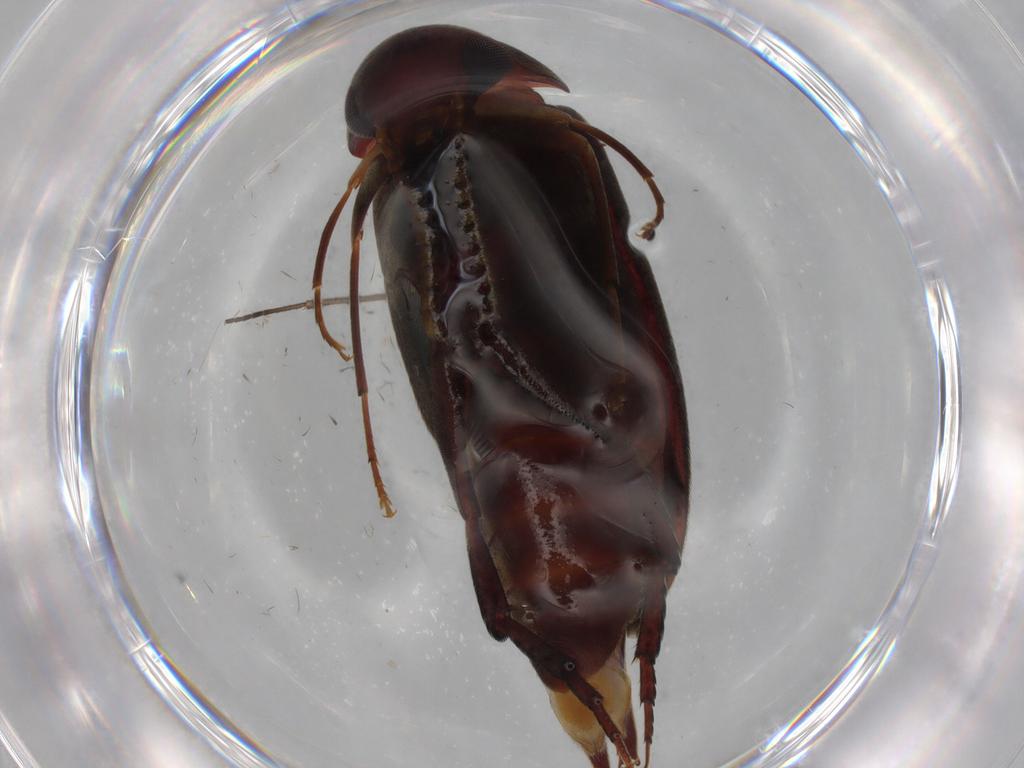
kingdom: Animalia
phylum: Arthropoda
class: Insecta
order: Coleoptera
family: Mordellidae
